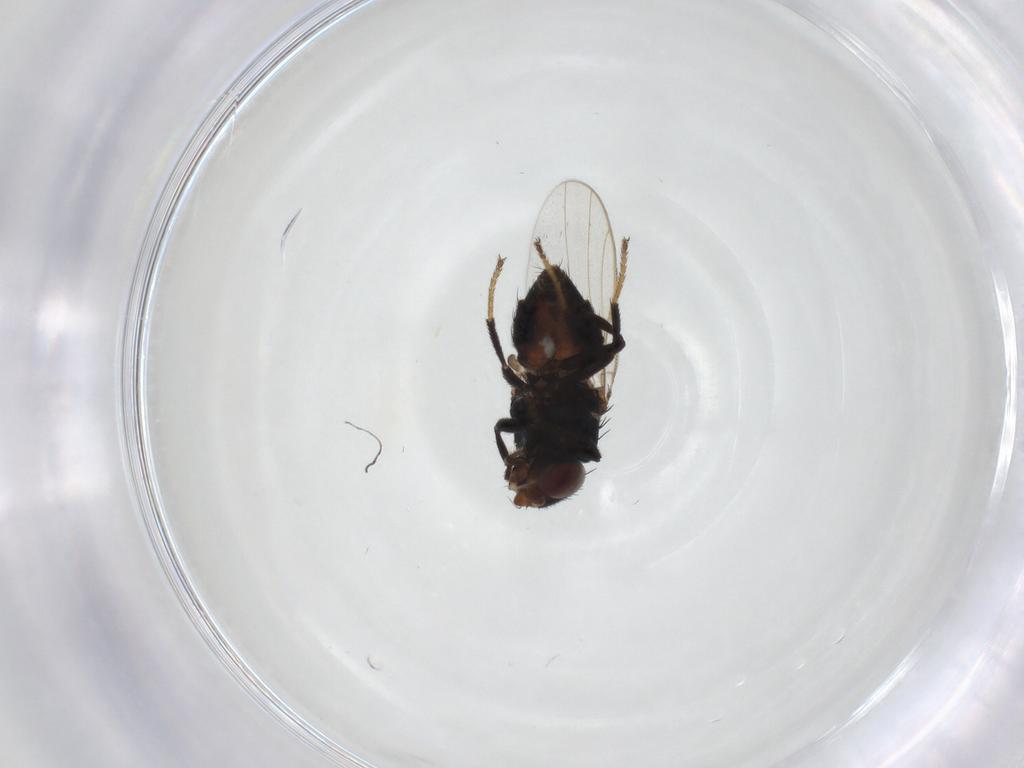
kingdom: Animalia
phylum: Arthropoda
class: Insecta
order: Diptera
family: Chloropidae
